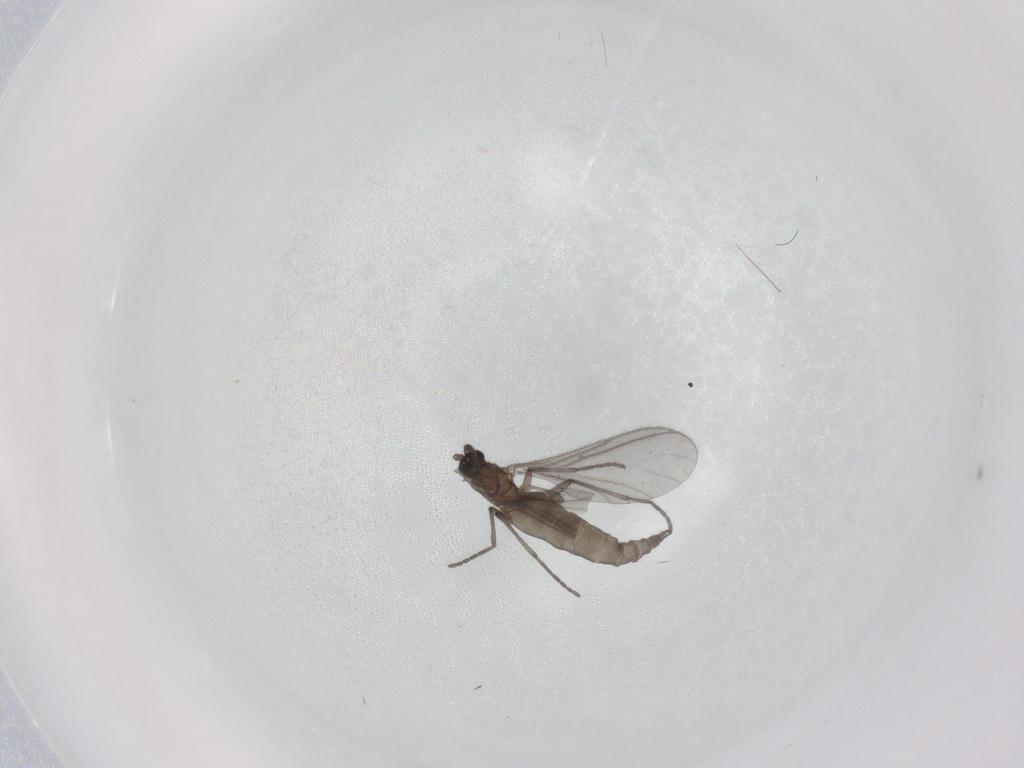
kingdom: Animalia
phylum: Arthropoda
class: Insecta
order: Diptera
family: Sciaridae
